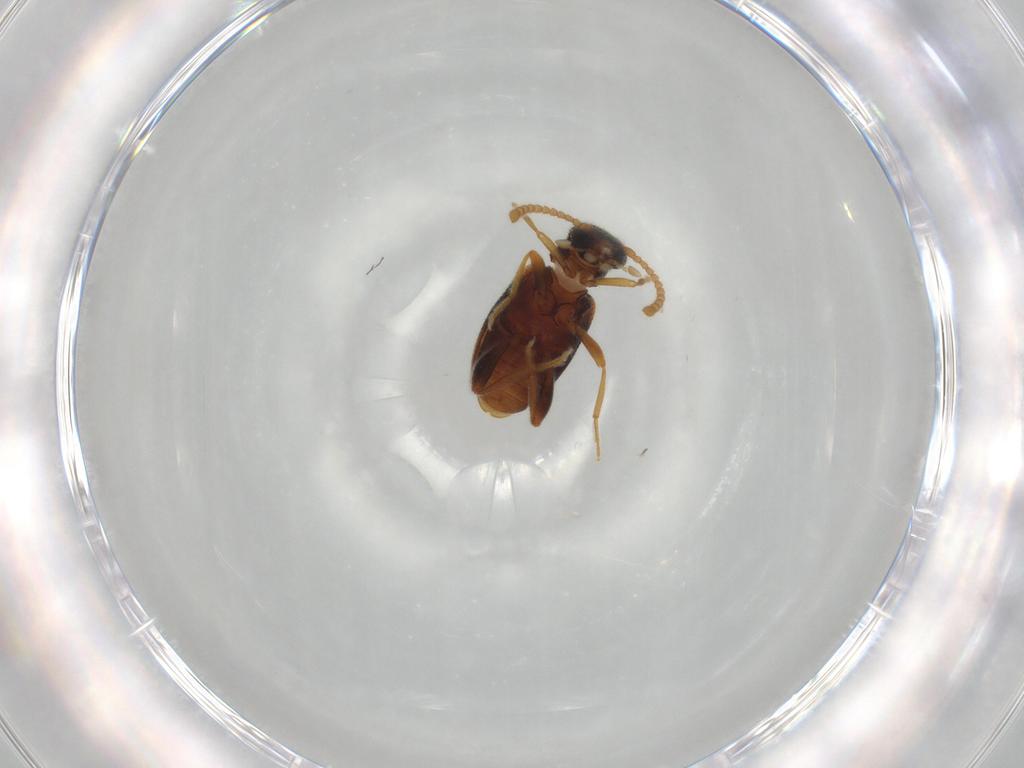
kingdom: Animalia
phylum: Arthropoda
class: Insecta
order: Coleoptera
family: Aderidae
